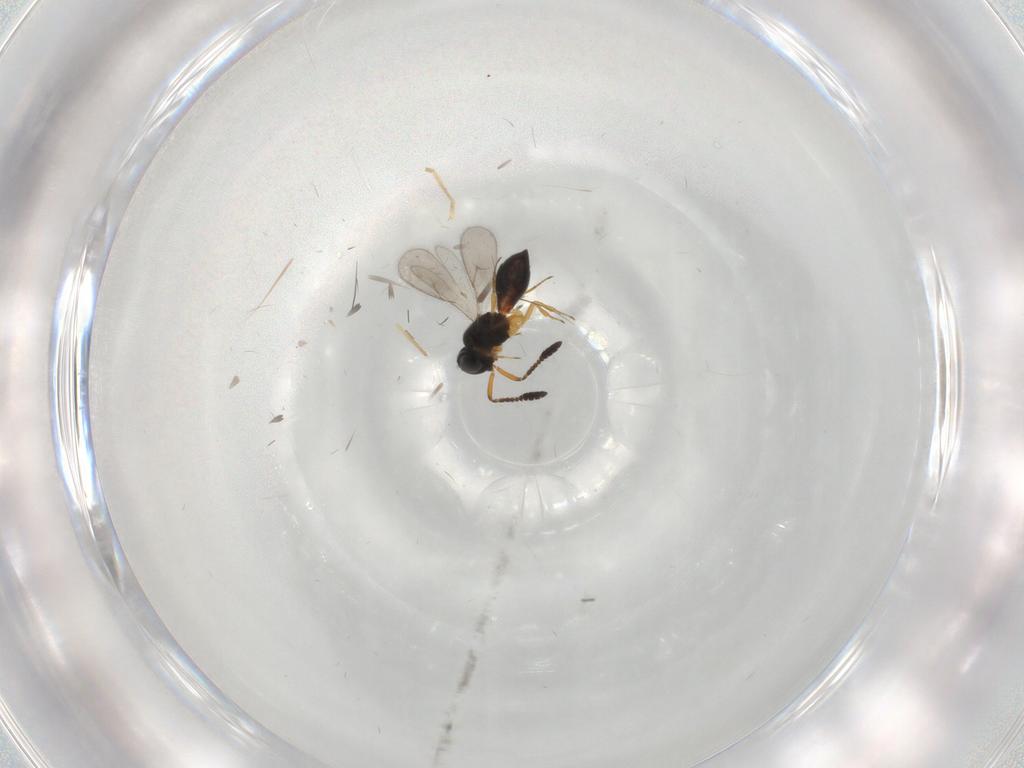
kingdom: Animalia
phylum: Arthropoda
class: Insecta
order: Hymenoptera
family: Scelionidae
